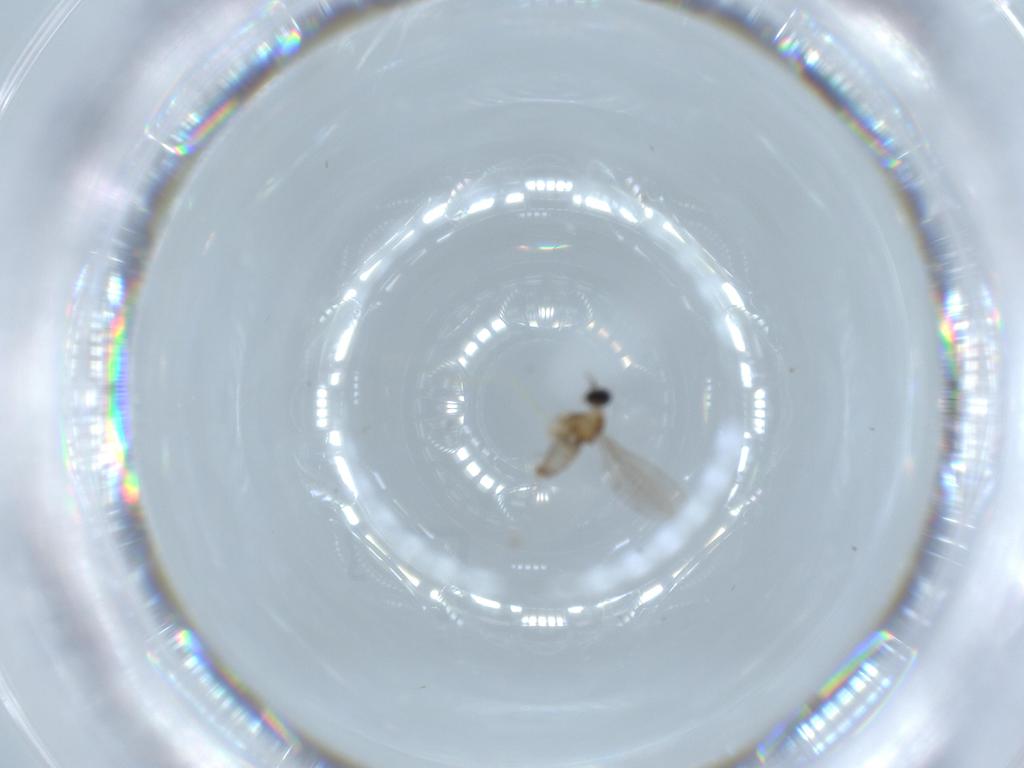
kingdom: Animalia
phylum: Arthropoda
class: Insecta
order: Diptera
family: Cecidomyiidae
